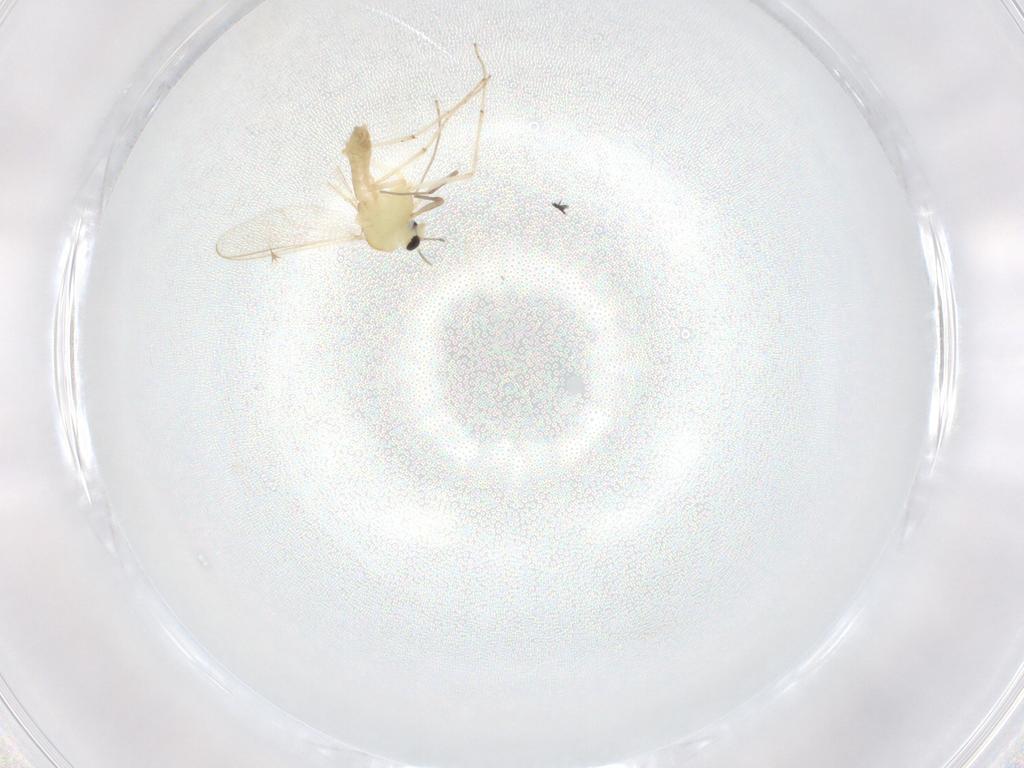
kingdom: Animalia
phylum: Arthropoda
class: Insecta
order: Diptera
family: Chironomidae
